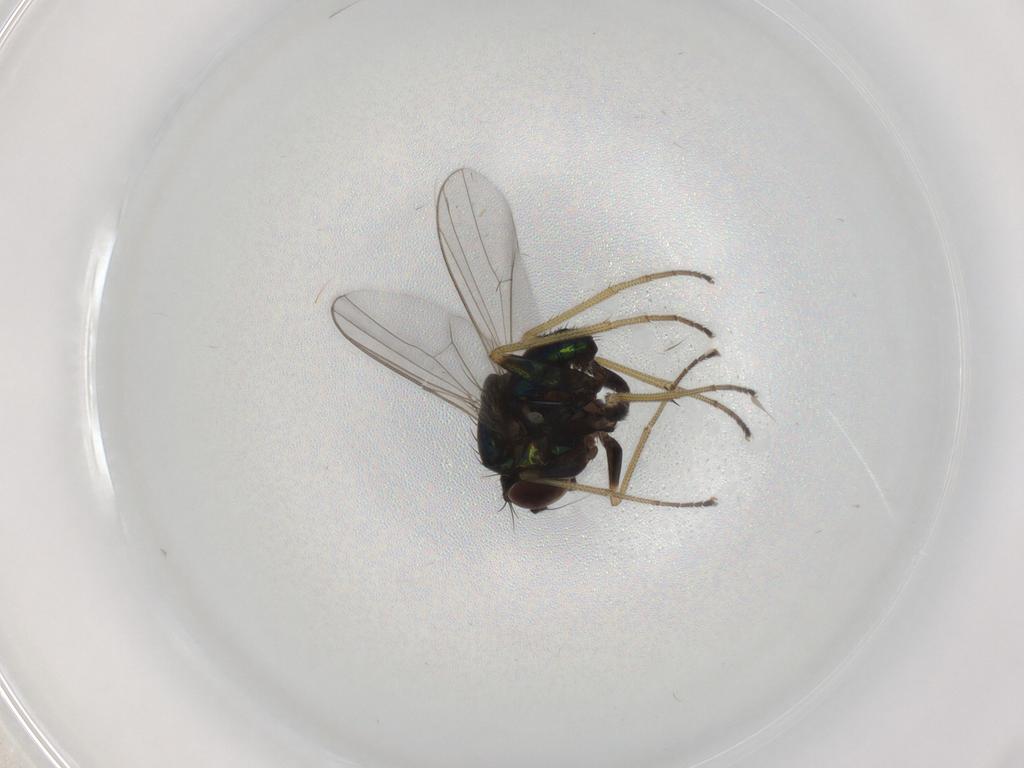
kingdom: Animalia
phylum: Arthropoda
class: Insecta
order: Diptera
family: Dolichopodidae
